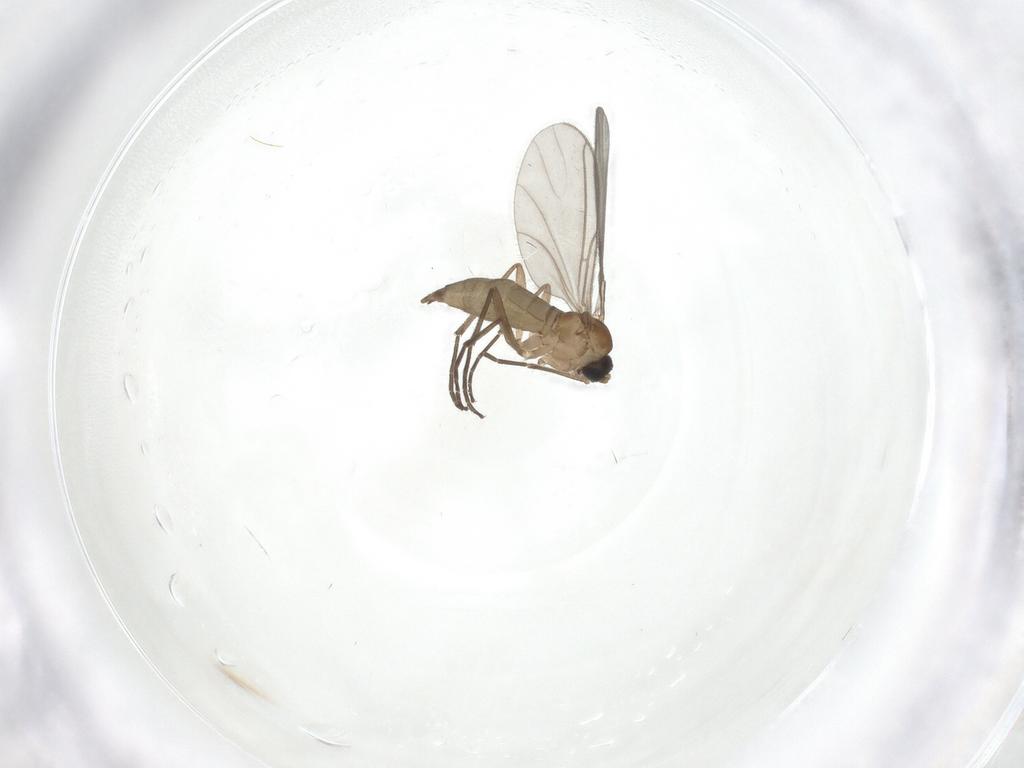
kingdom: Animalia
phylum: Arthropoda
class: Insecta
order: Diptera
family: Sciaridae
